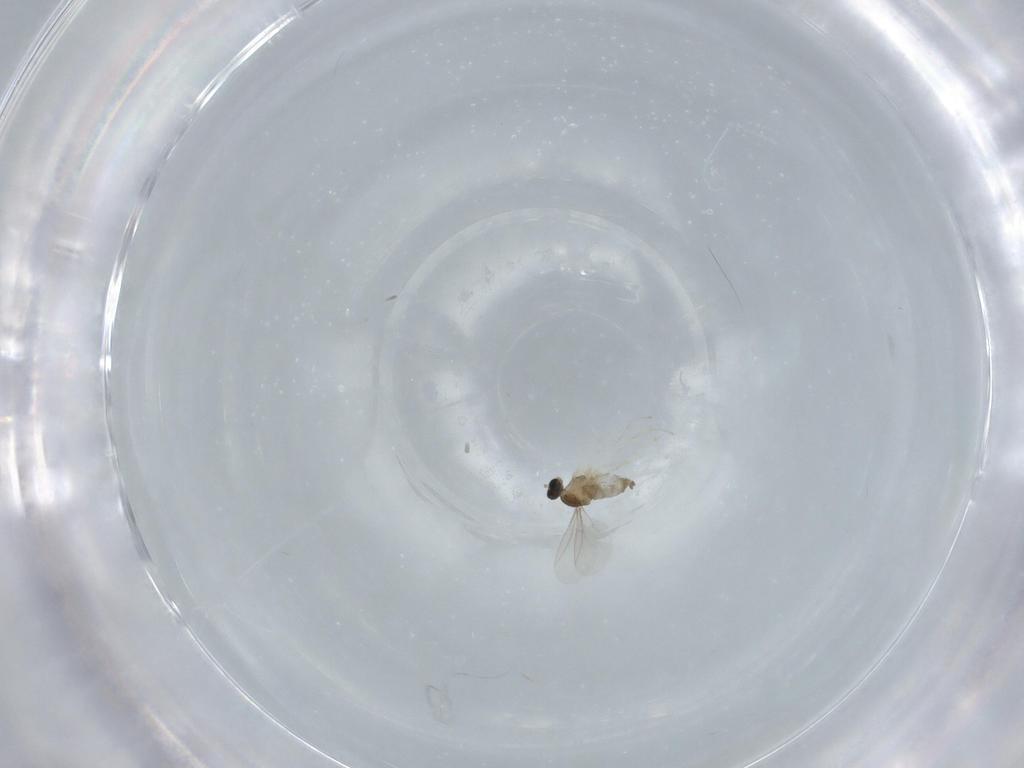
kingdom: Animalia
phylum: Arthropoda
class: Insecta
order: Diptera
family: Cecidomyiidae
